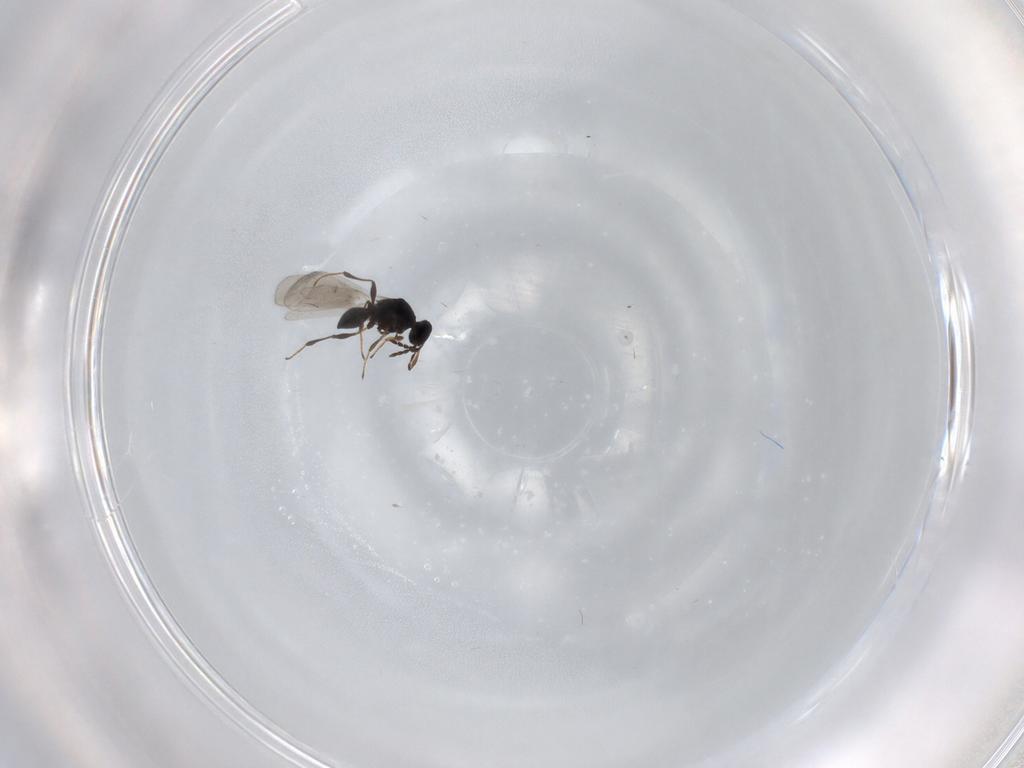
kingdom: Animalia
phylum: Arthropoda
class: Insecta
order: Hymenoptera
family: Platygastridae
